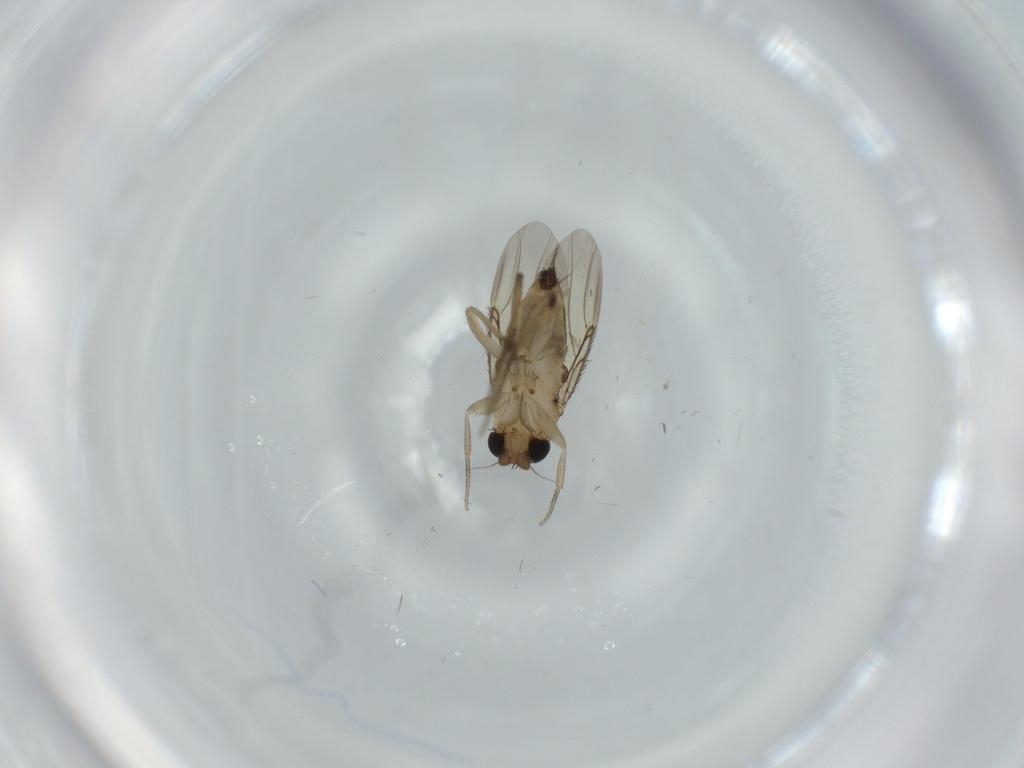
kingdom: Animalia
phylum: Arthropoda
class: Insecta
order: Diptera
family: Phoridae
